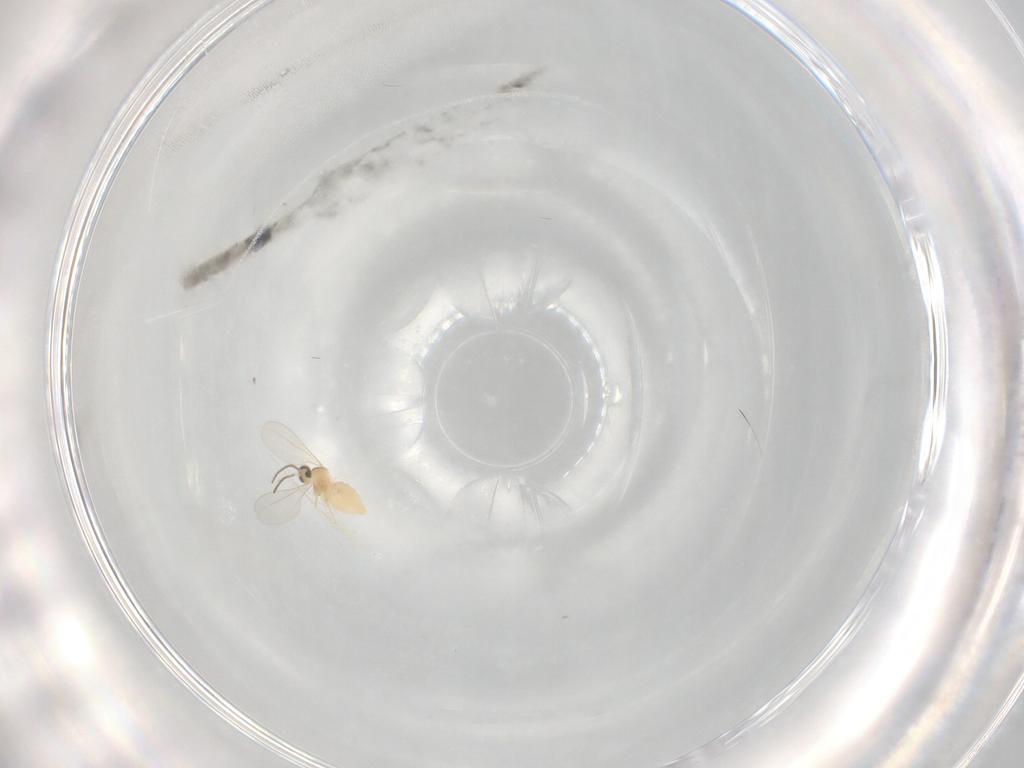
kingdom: Animalia
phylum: Arthropoda
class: Insecta
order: Diptera
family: Cecidomyiidae
